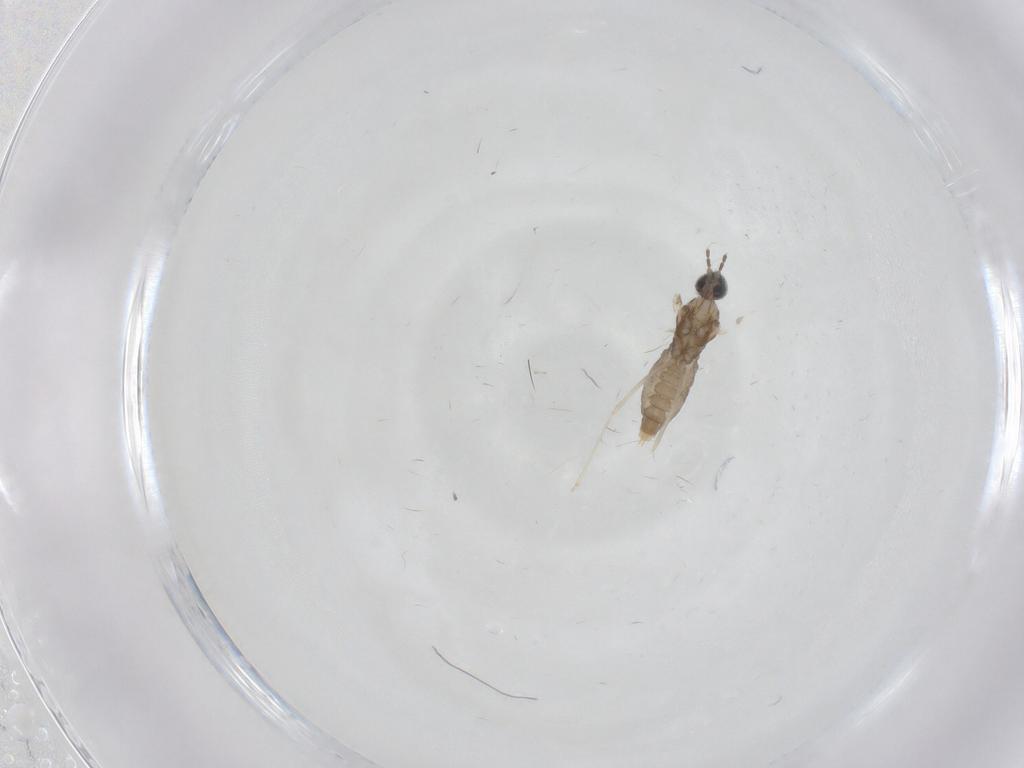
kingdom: Animalia
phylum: Arthropoda
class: Insecta
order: Diptera
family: Cecidomyiidae
